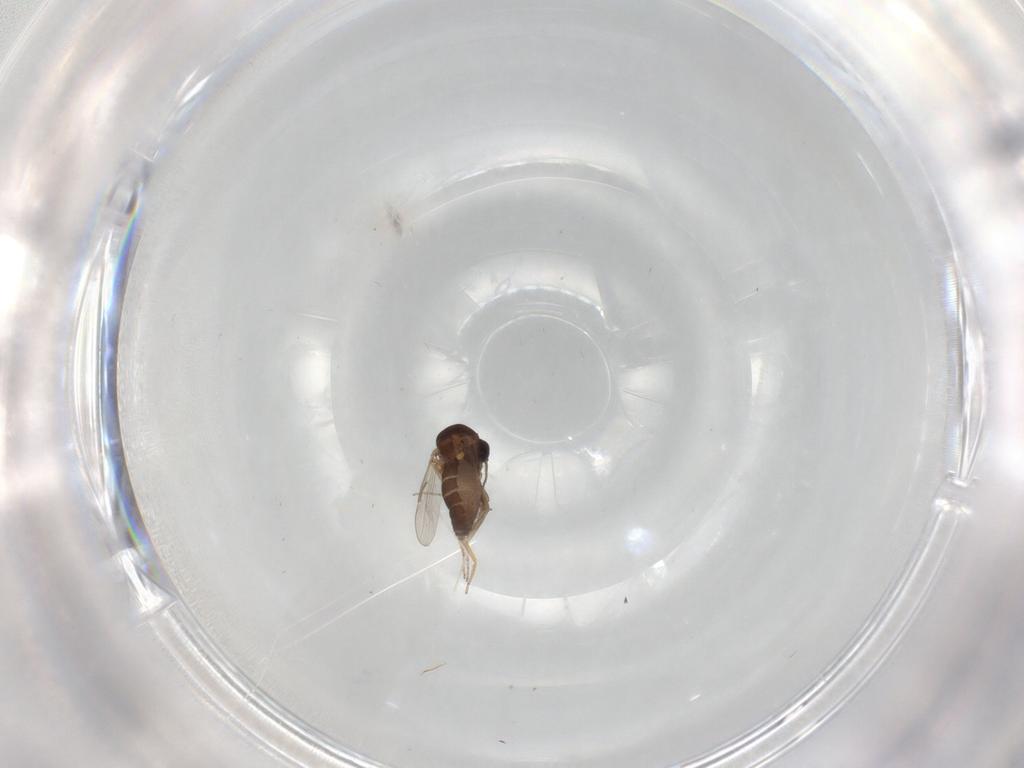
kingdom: Animalia
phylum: Arthropoda
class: Insecta
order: Diptera
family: Ceratopogonidae
